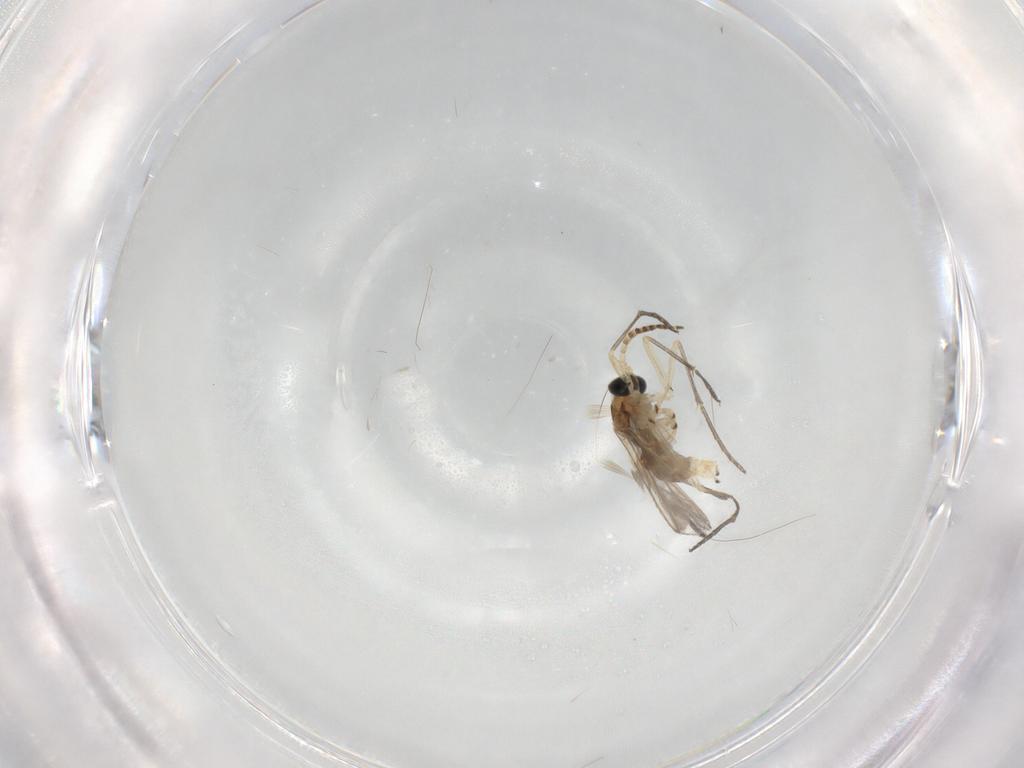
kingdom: Animalia
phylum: Arthropoda
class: Insecta
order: Diptera
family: Sciaridae
